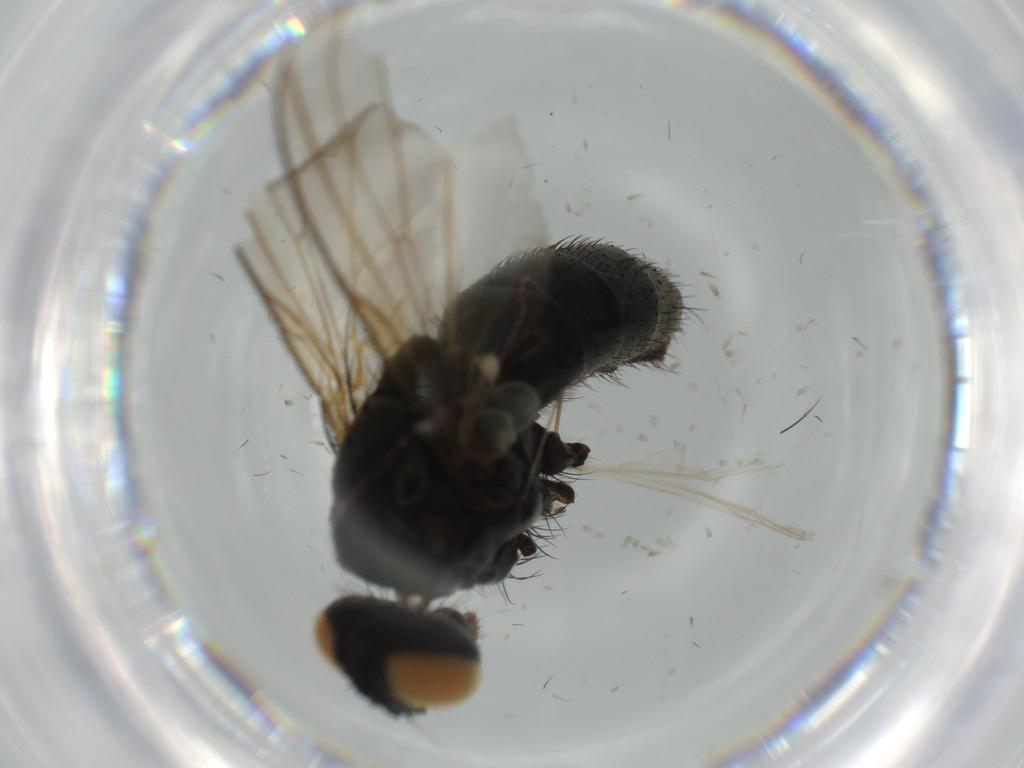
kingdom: Animalia
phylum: Arthropoda
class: Insecta
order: Diptera
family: Muscidae
